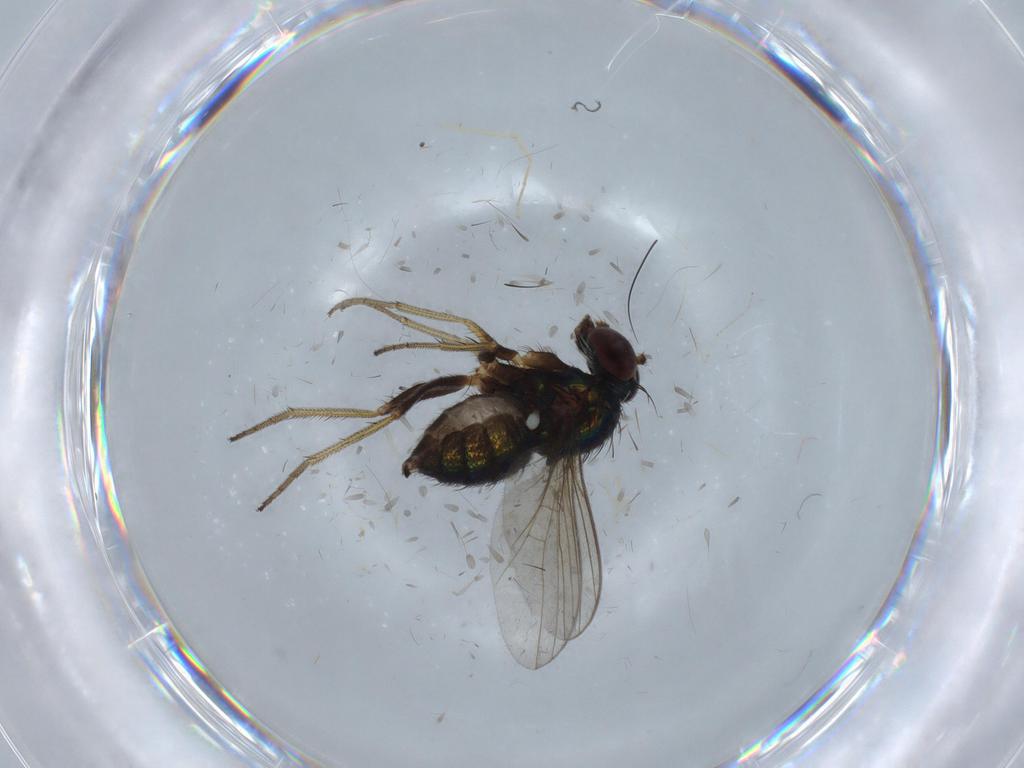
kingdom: Animalia
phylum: Arthropoda
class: Insecta
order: Diptera
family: Cecidomyiidae
